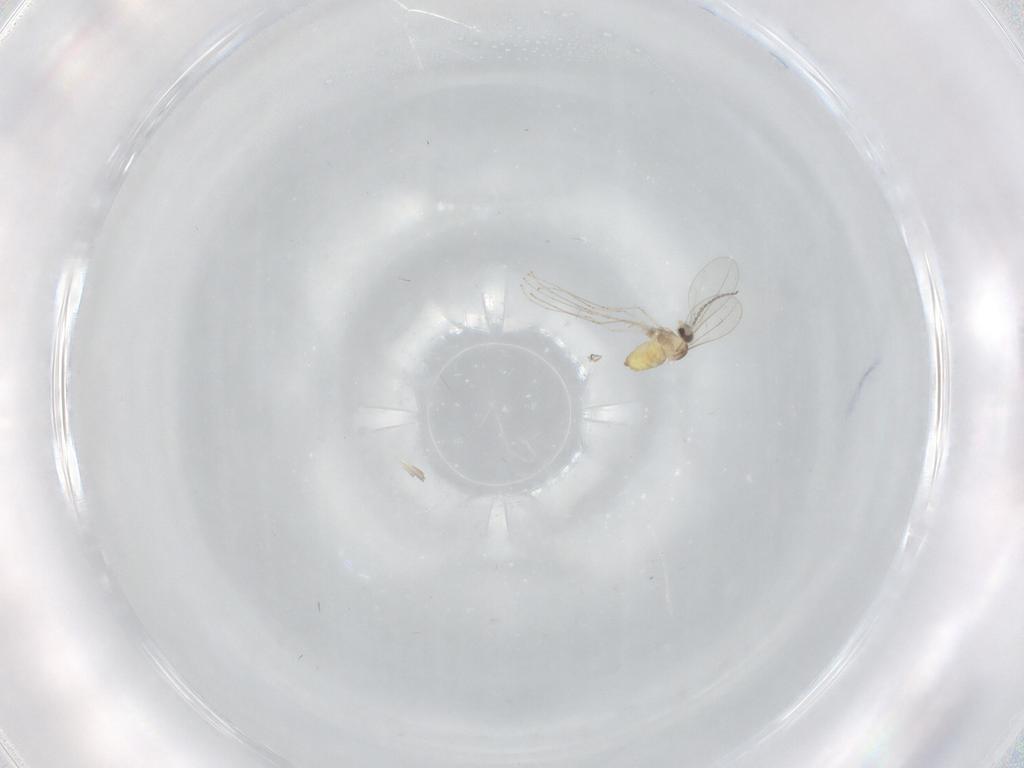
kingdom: Animalia
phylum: Arthropoda
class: Insecta
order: Diptera
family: Cecidomyiidae
